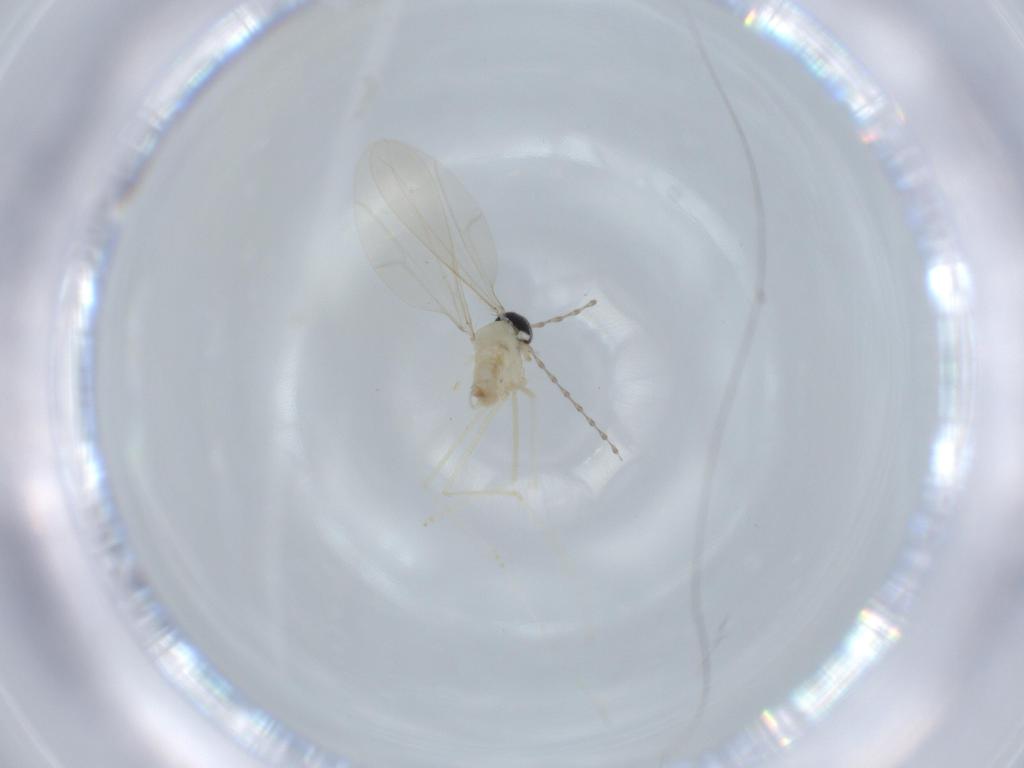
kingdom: Animalia
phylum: Arthropoda
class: Insecta
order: Diptera
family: Cecidomyiidae
